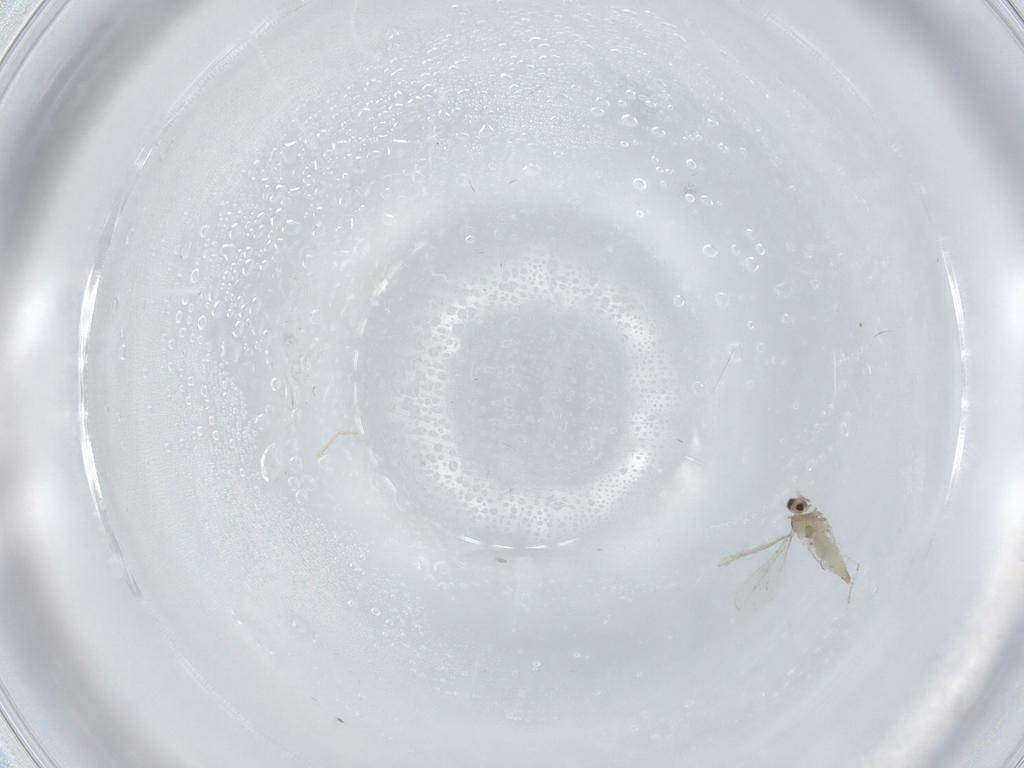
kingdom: Animalia
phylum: Arthropoda
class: Insecta
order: Diptera
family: Cecidomyiidae
